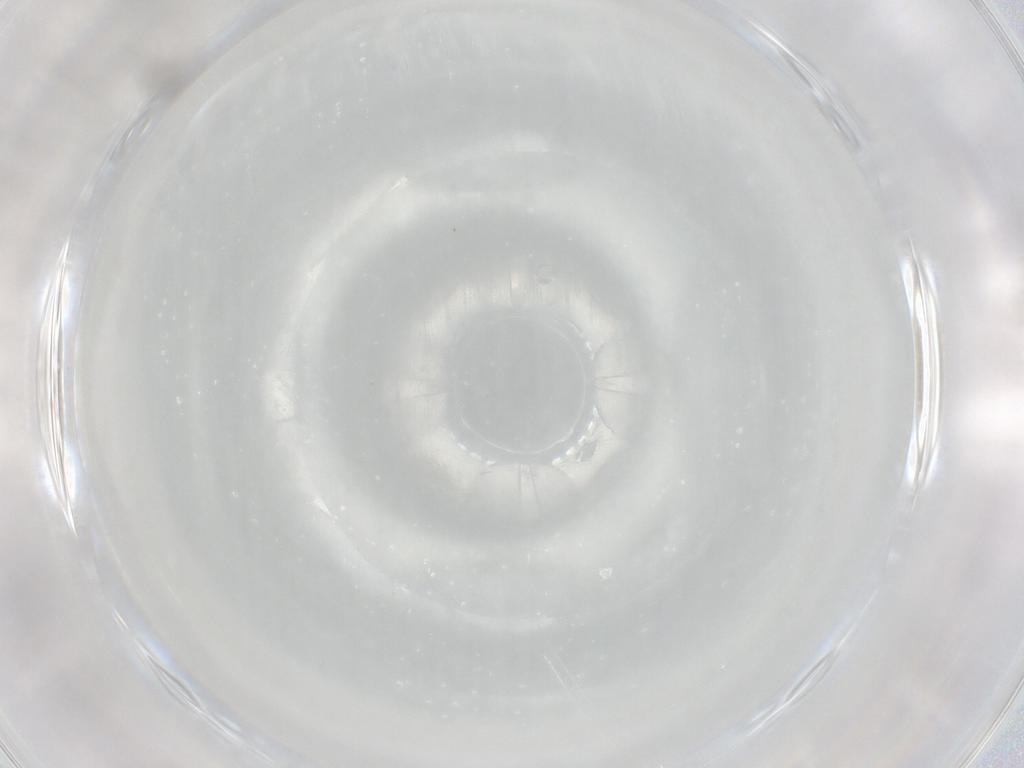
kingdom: Animalia
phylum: Arthropoda
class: Insecta
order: Diptera
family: Cecidomyiidae
